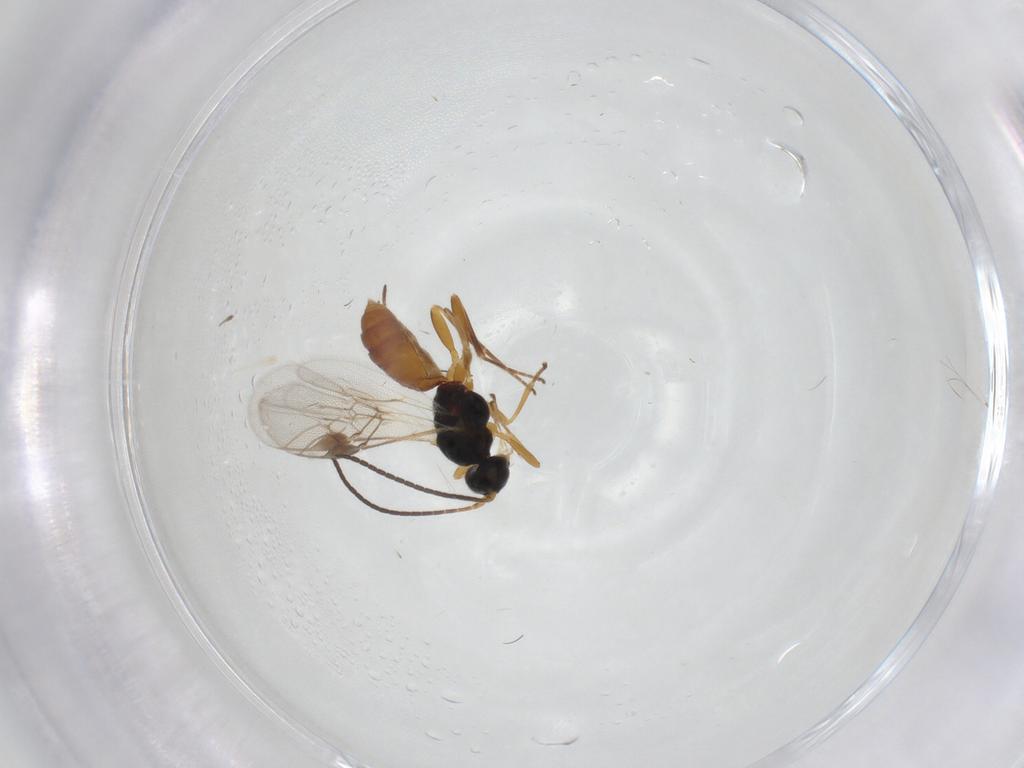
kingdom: Animalia
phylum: Arthropoda
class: Insecta
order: Hymenoptera
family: Braconidae
